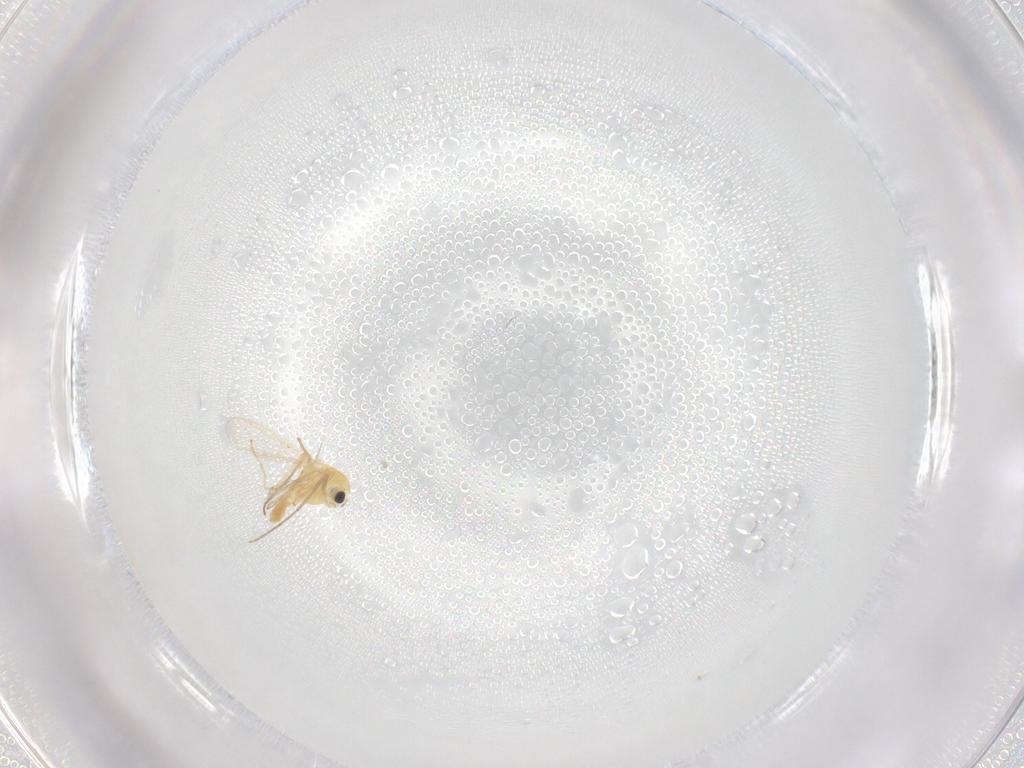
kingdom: Animalia
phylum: Arthropoda
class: Insecta
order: Diptera
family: Chironomidae
